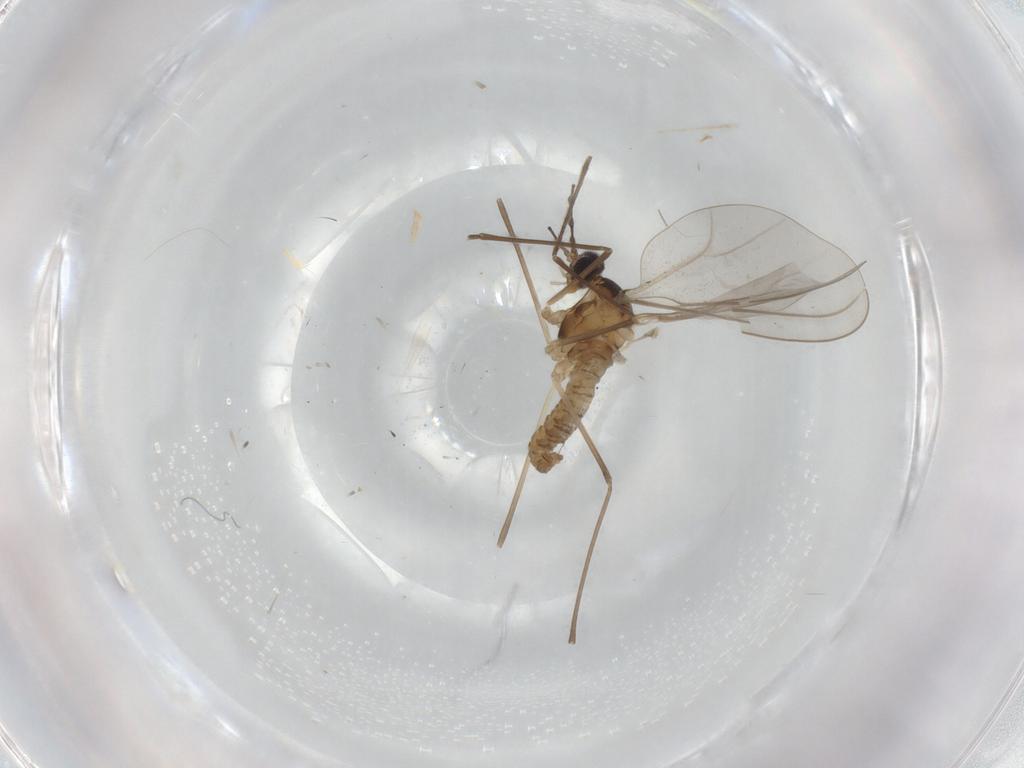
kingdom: Animalia
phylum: Arthropoda
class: Insecta
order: Diptera
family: Cecidomyiidae
